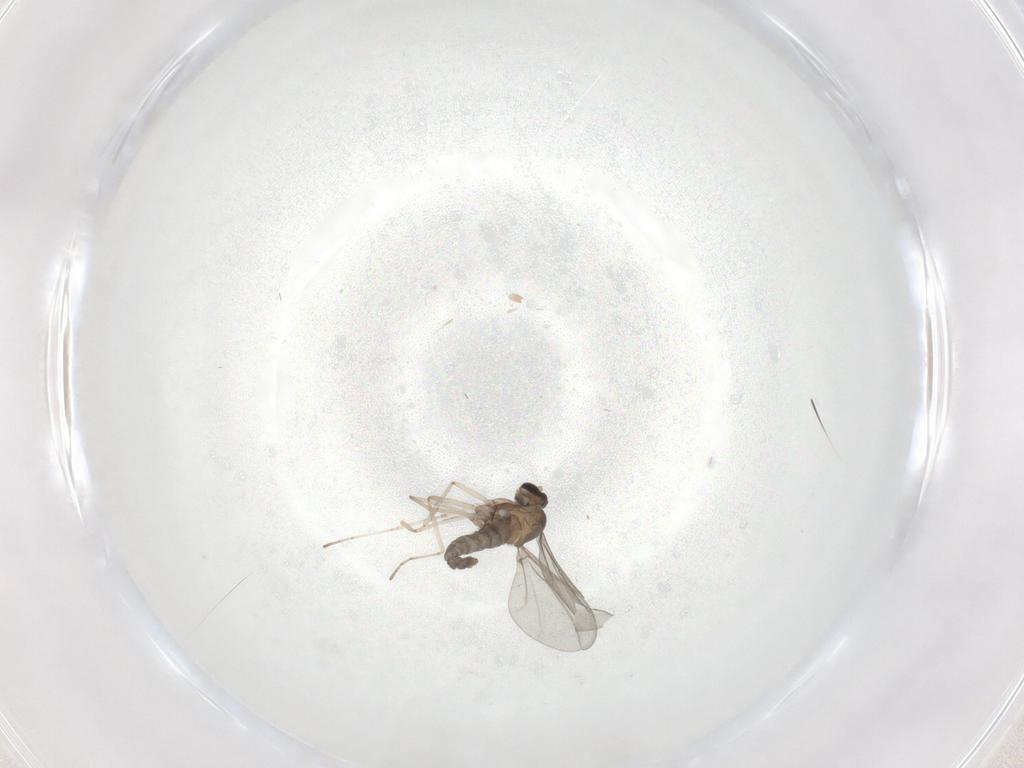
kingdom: Animalia
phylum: Arthropoda
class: Insecta
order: Diptera
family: Cecidomyiidae
